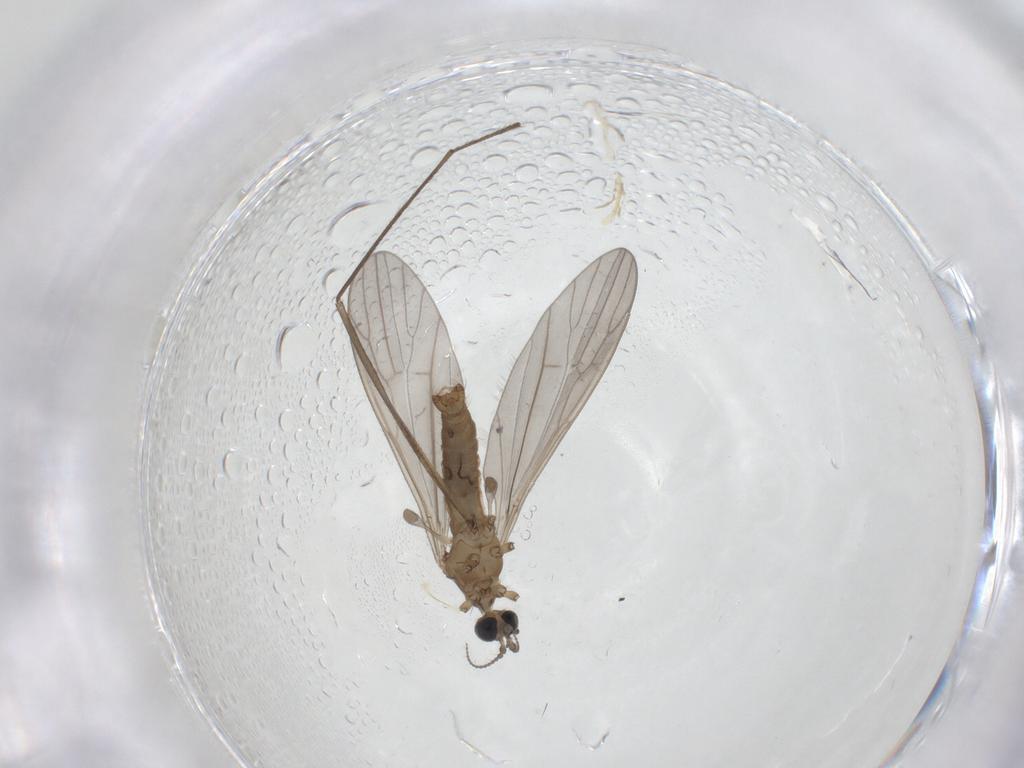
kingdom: Animalia
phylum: Arthropoda
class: Insecta
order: Diptera
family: Limoniidae
